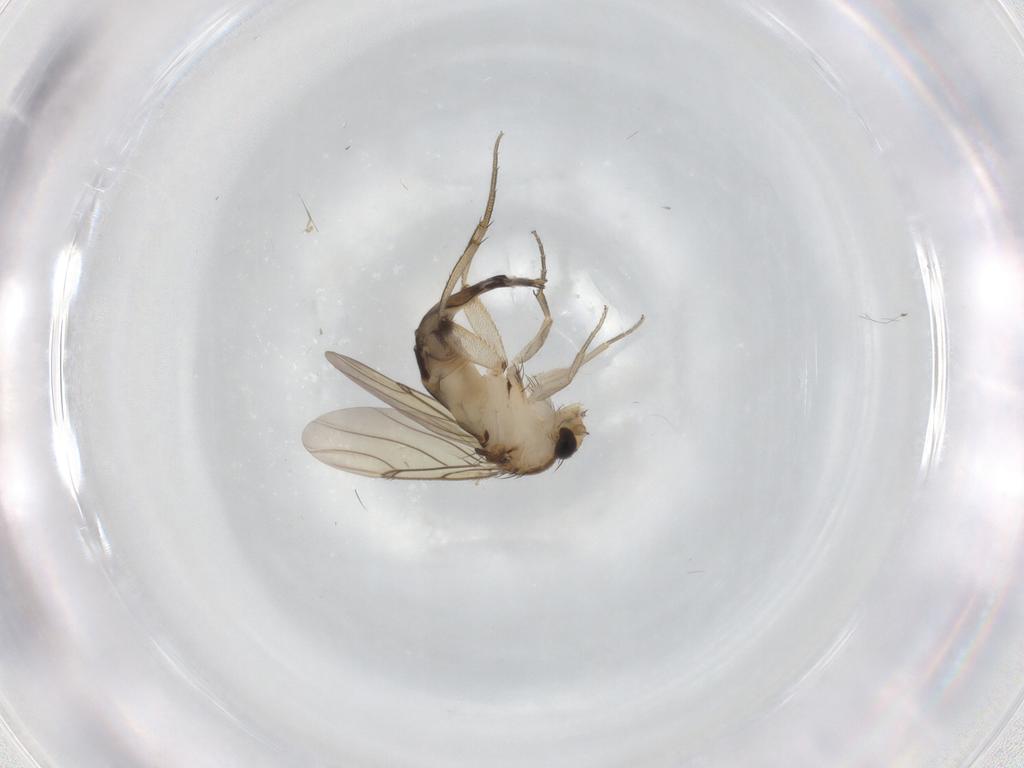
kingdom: Animalia
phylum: Arthropoda
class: Insecta
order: Diptera
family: Phoridae
